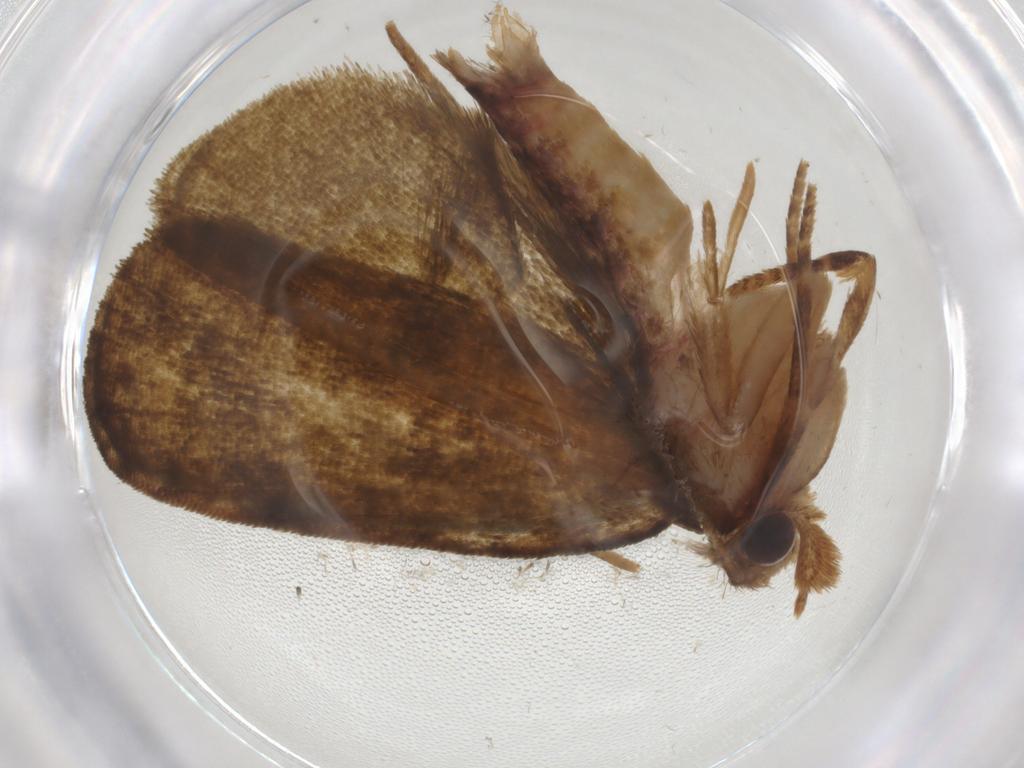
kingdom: Animalia
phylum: Arthropoda
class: Insecta
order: Lepidoptera
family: Geometridae
